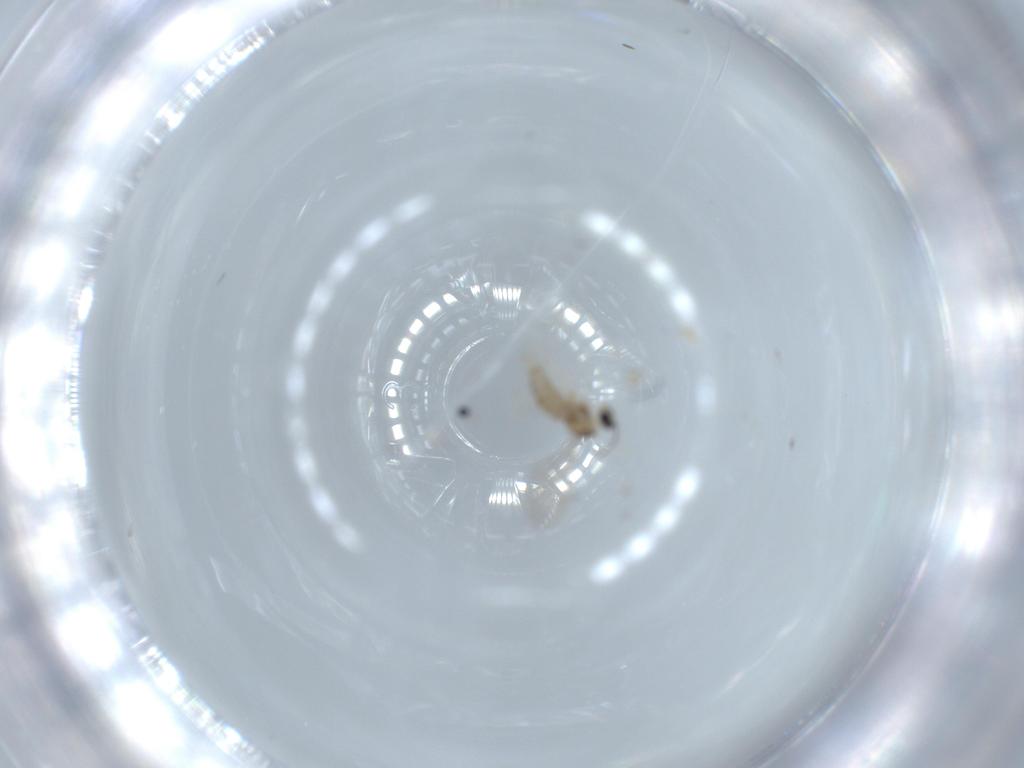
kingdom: Animalia
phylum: Arthropoda
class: Insecta
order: Diptera
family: Cecidomyiidae
